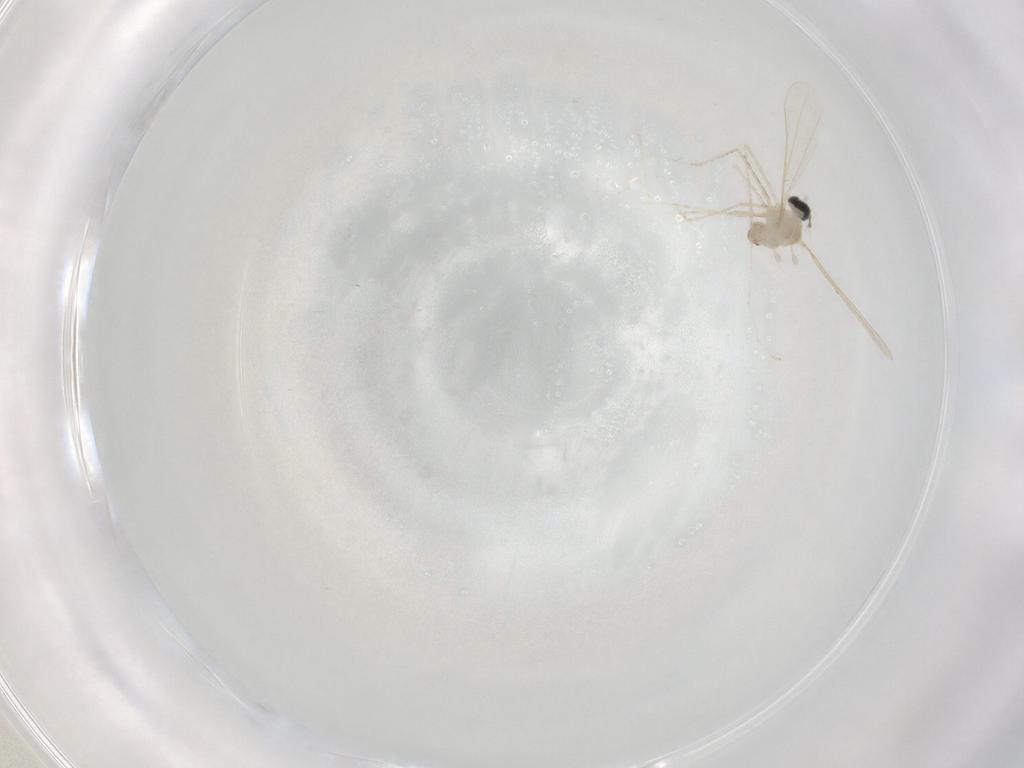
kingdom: Animalia
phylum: Arthropoda
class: Insecta
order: Diptera
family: Cecidomyiidae
